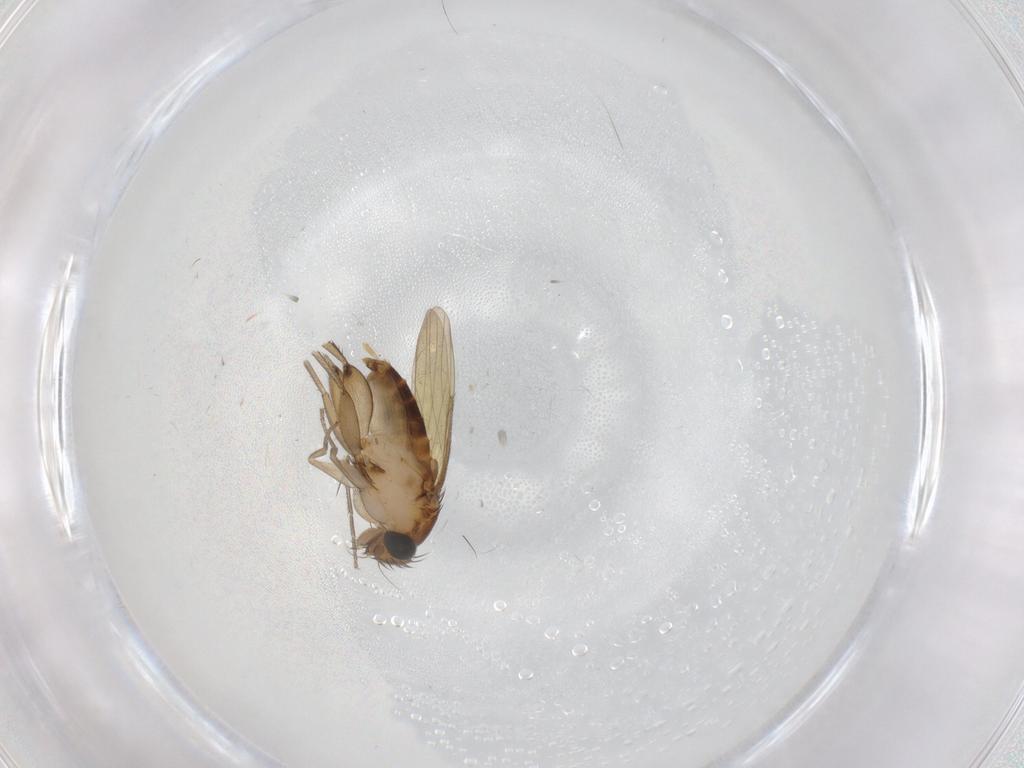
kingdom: Animalia
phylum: Arthropoda
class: Insecta
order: Diptera
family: Phoridae
